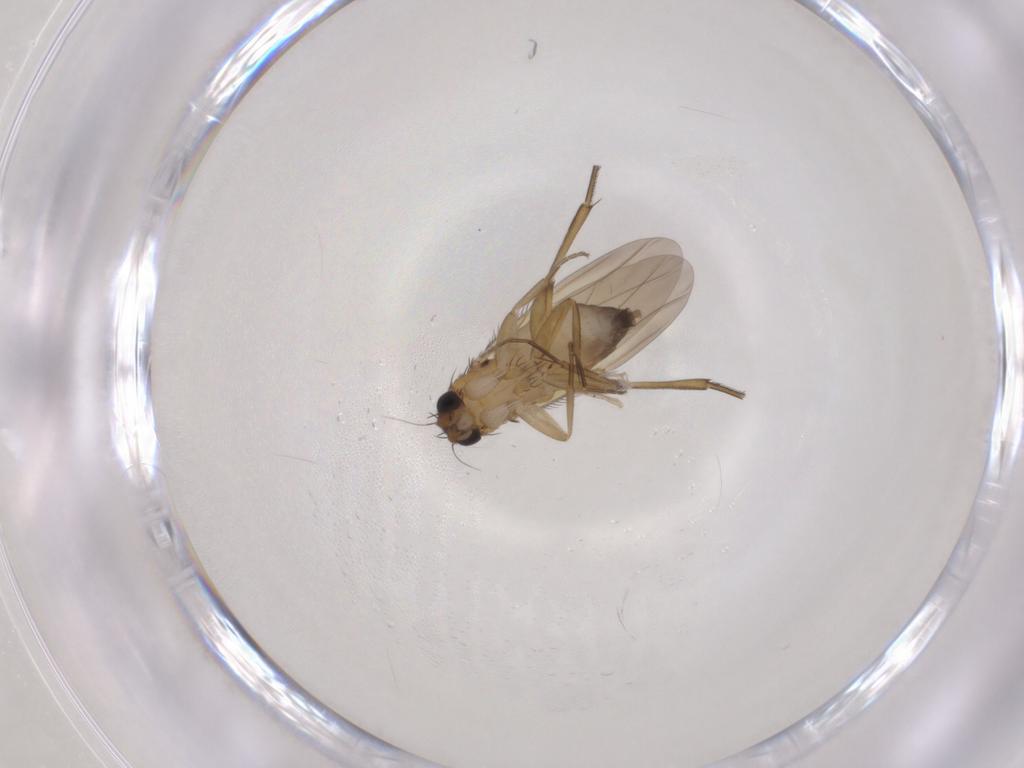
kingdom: Animalia
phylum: Arthropoda
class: Insecta
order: Diptera
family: Phoridae
